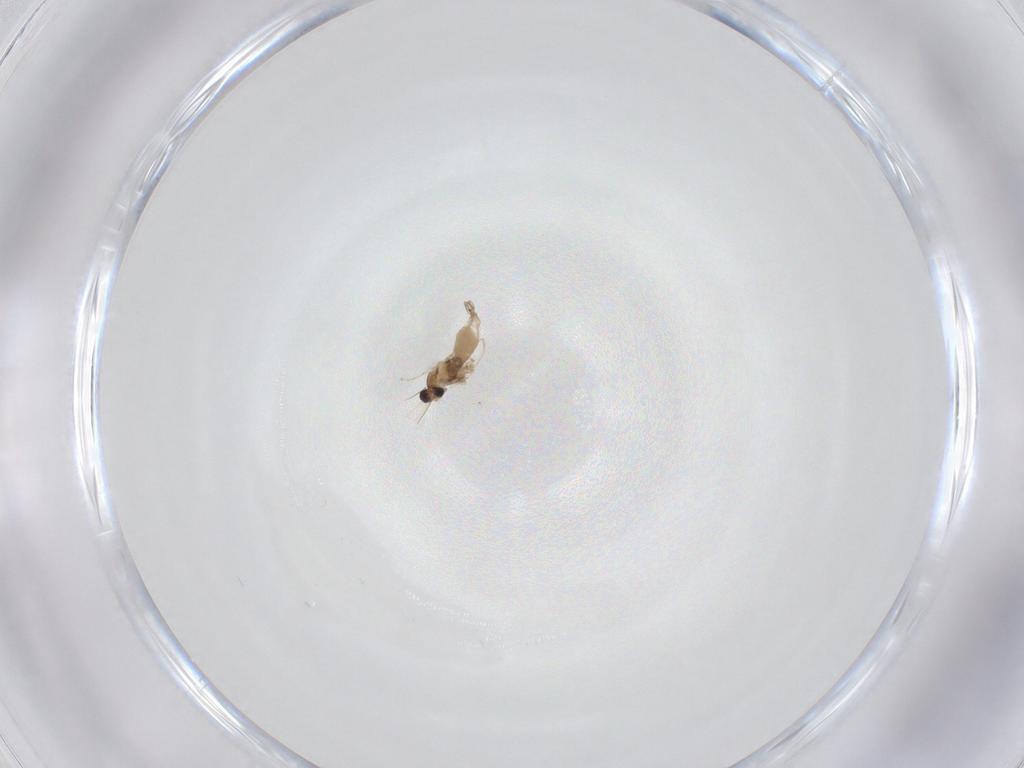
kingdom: Animalia
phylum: Arthropoda
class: Insecta
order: Diptera
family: Cecidomyiidae
